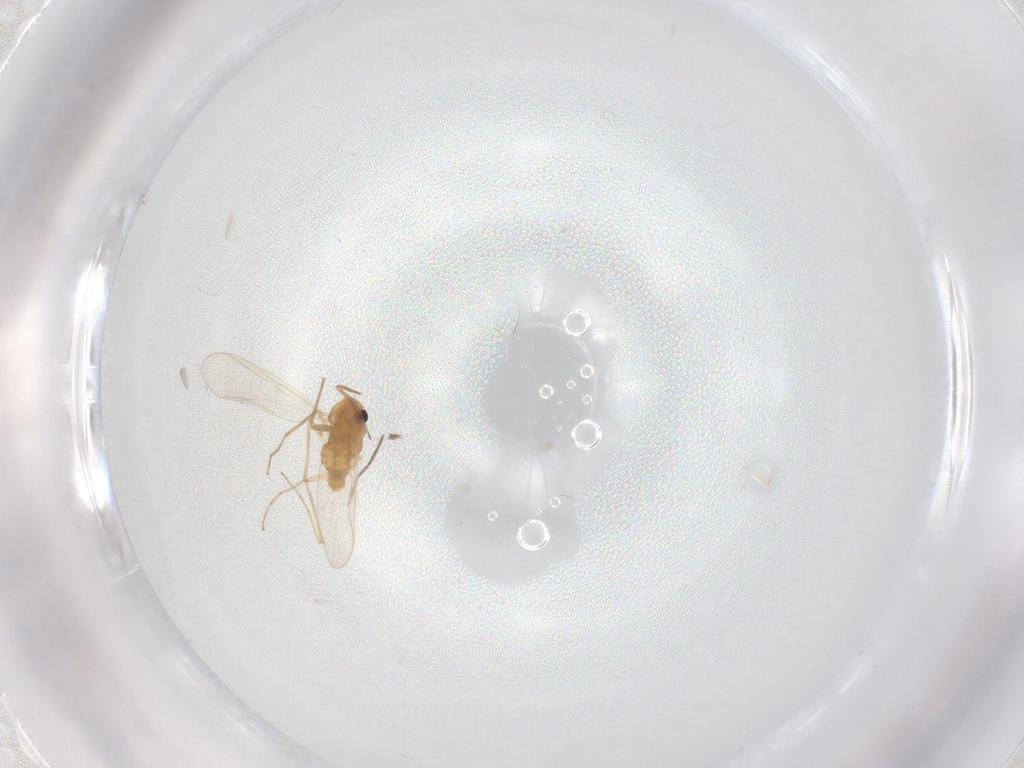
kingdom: Animalia
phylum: Arthropoda
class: Insecta
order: Diptera
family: Chironomidae
